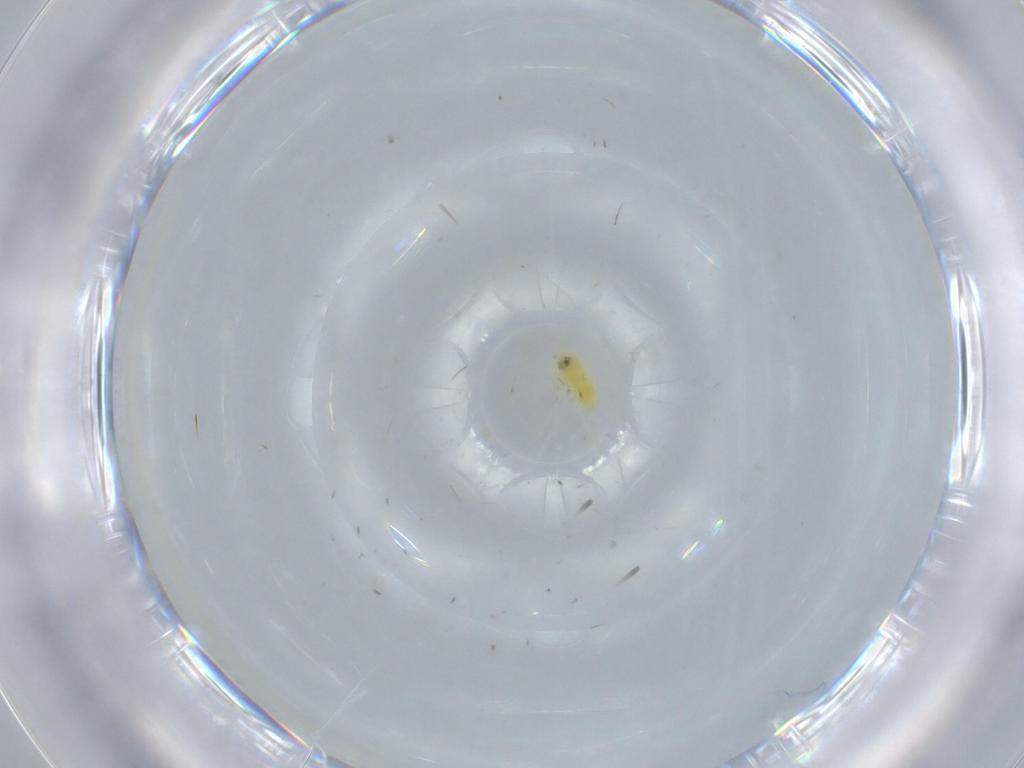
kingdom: Animalia
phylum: Arthropoda
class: Insecta
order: Hemiptera
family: Aleyrodidae
